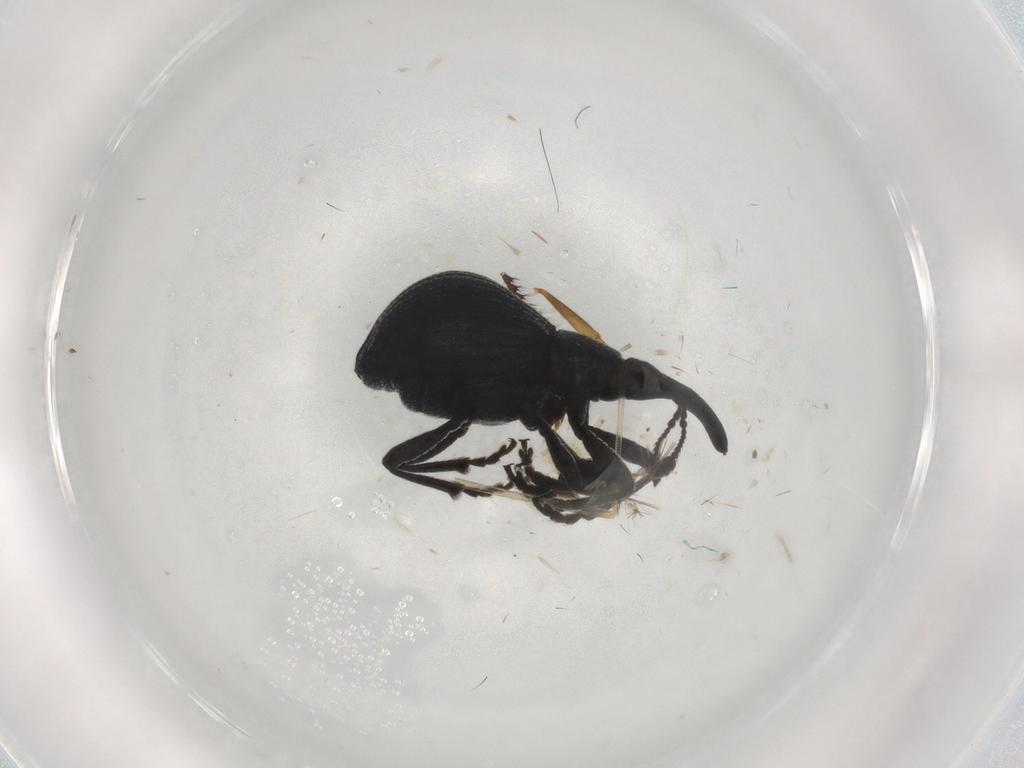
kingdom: Animalia
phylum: Arthropoda
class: Insecta
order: Coleoptera
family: Brentidae
